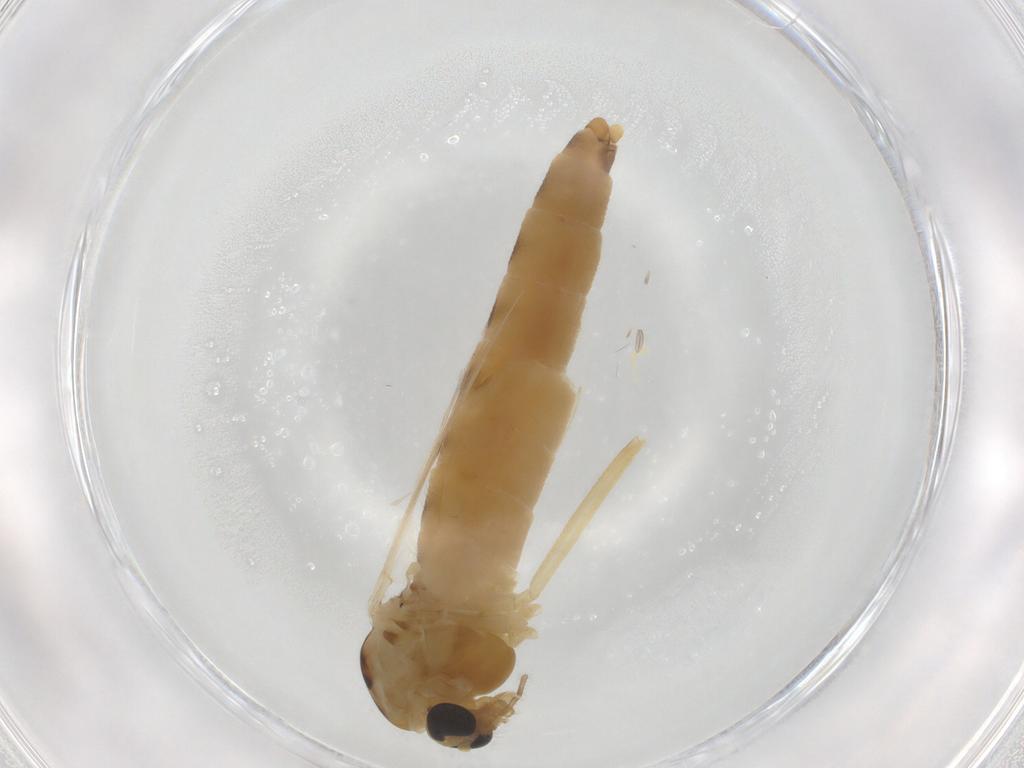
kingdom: Animalia
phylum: Arthropoda
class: Insecta
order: Diptera
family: Chironomidae
